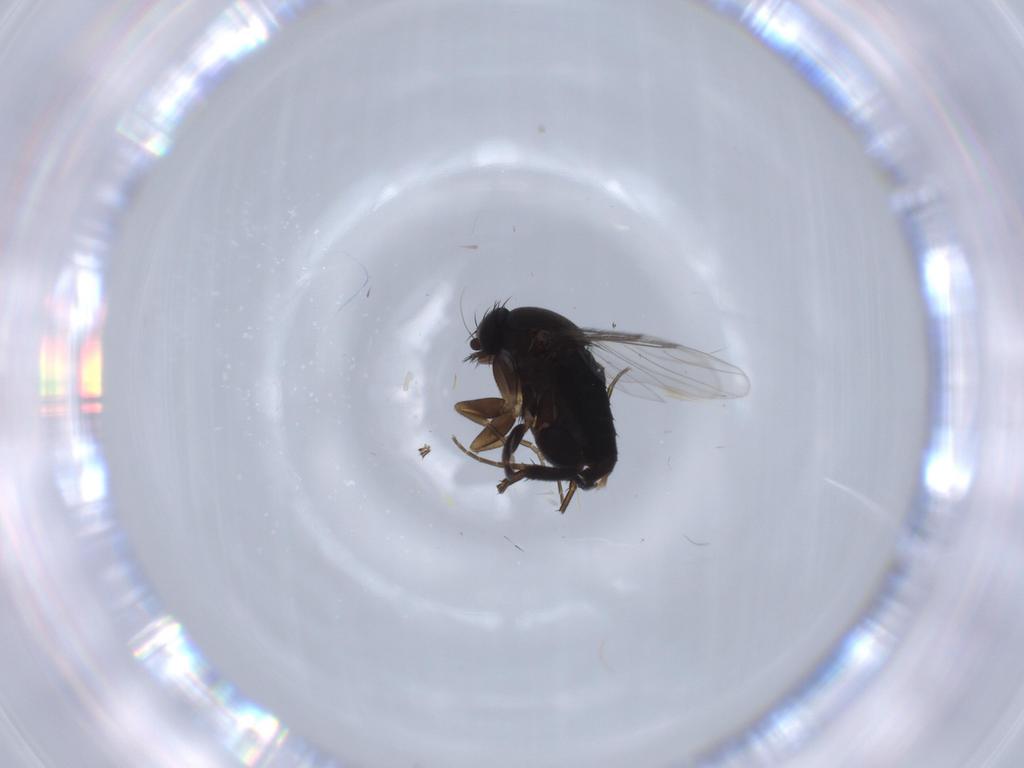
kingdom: Animalia
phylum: Arthropoda
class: Insecta
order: Diptera
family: Phoridae
